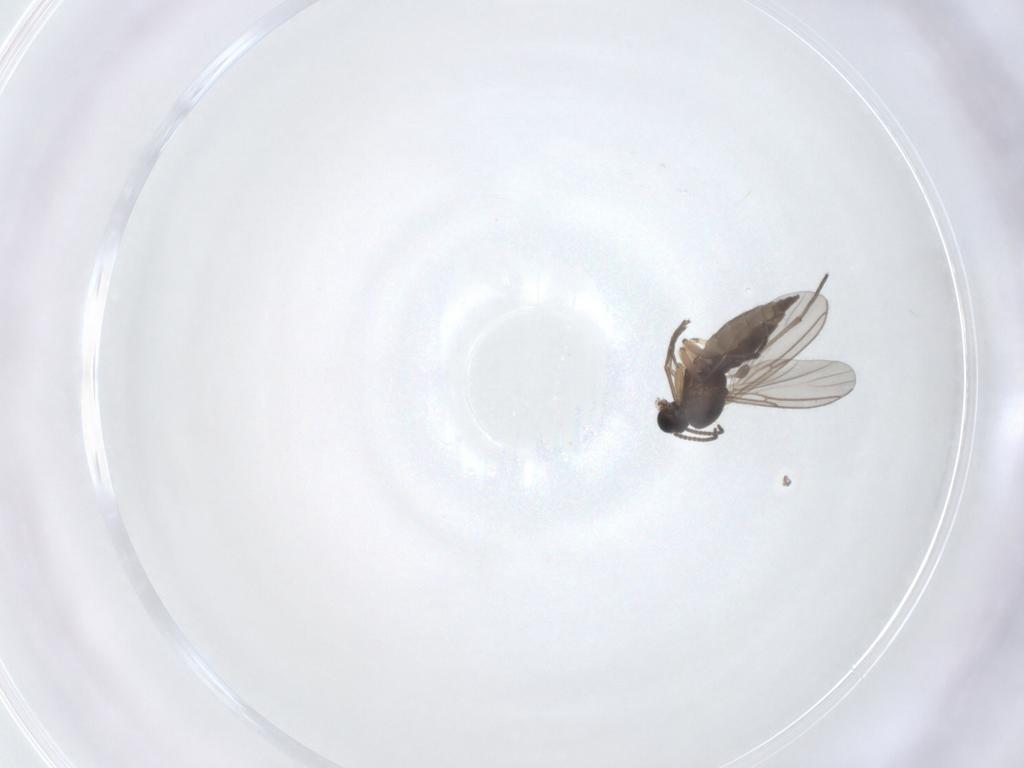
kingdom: Animalia
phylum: Arthropoda
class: Insecta
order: Diptera
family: Sciaridae
